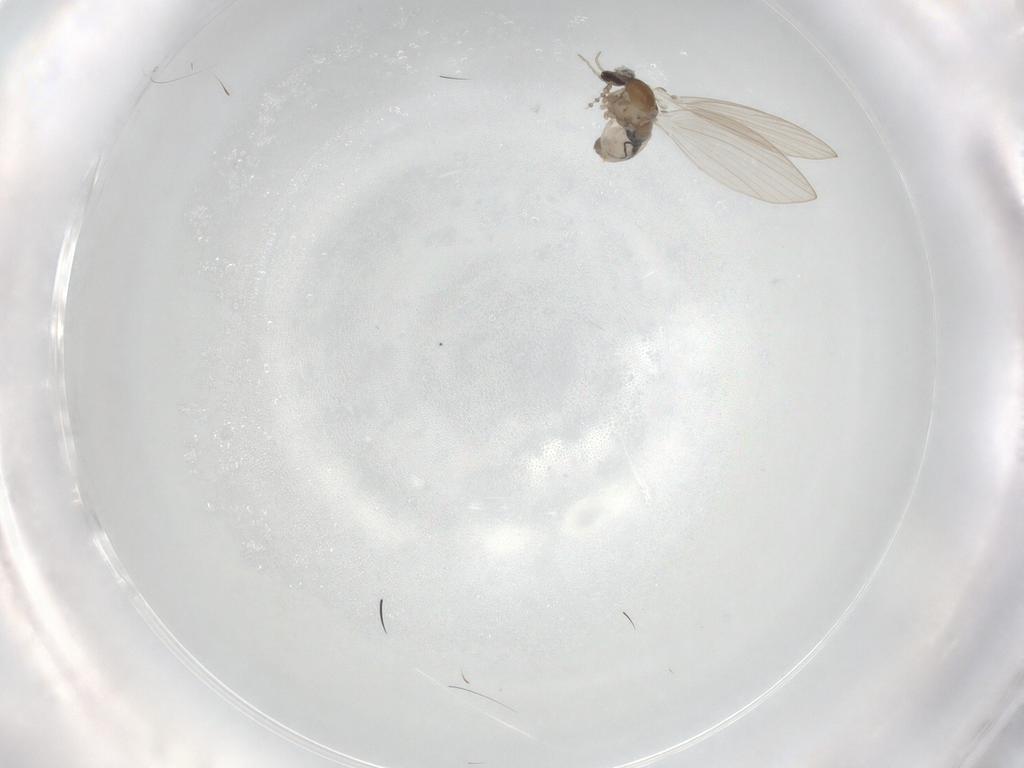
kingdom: Animalia
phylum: Arthropoda
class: Insecta
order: Diptera
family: Psychodidae
